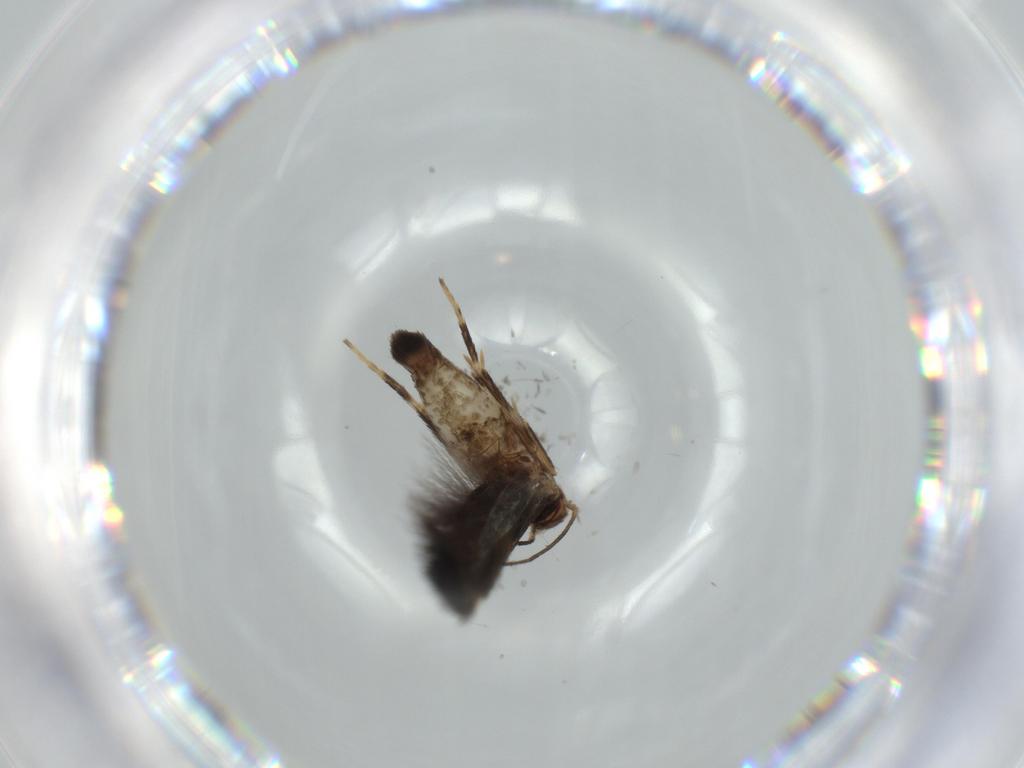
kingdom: Animalia
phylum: Arthropoda
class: Insecta
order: Lepidoptera
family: Cosmopterigidae
